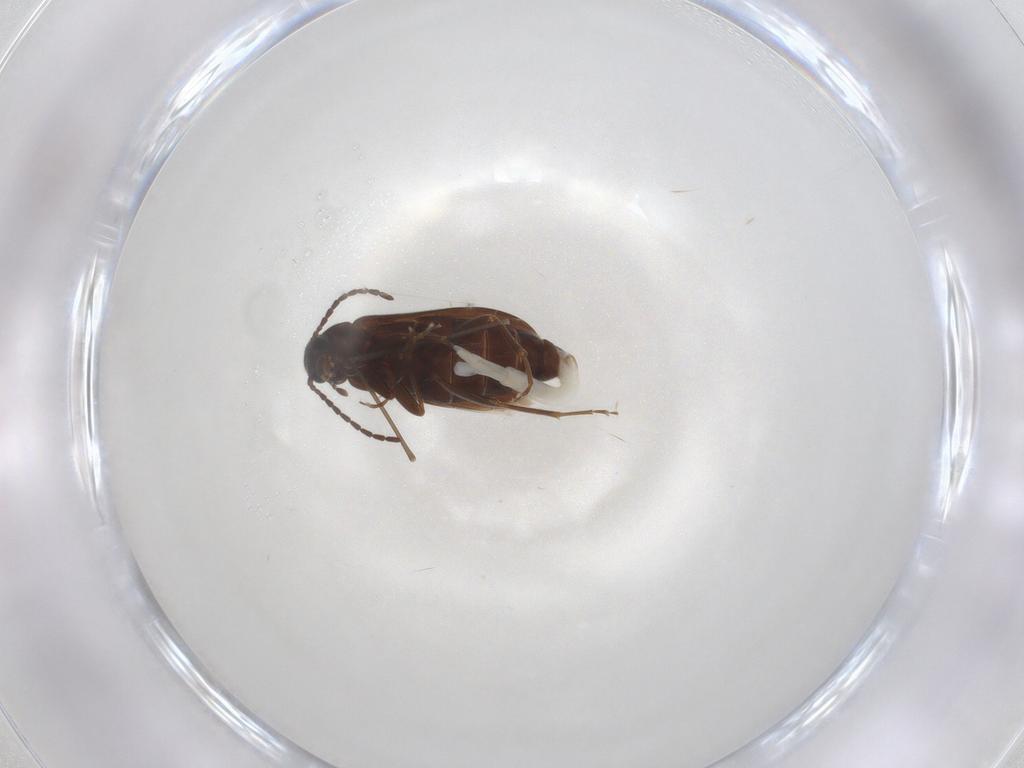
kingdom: Animalia
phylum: Arthropoda
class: Insecta
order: Coleoptera
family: Scraptiidae
